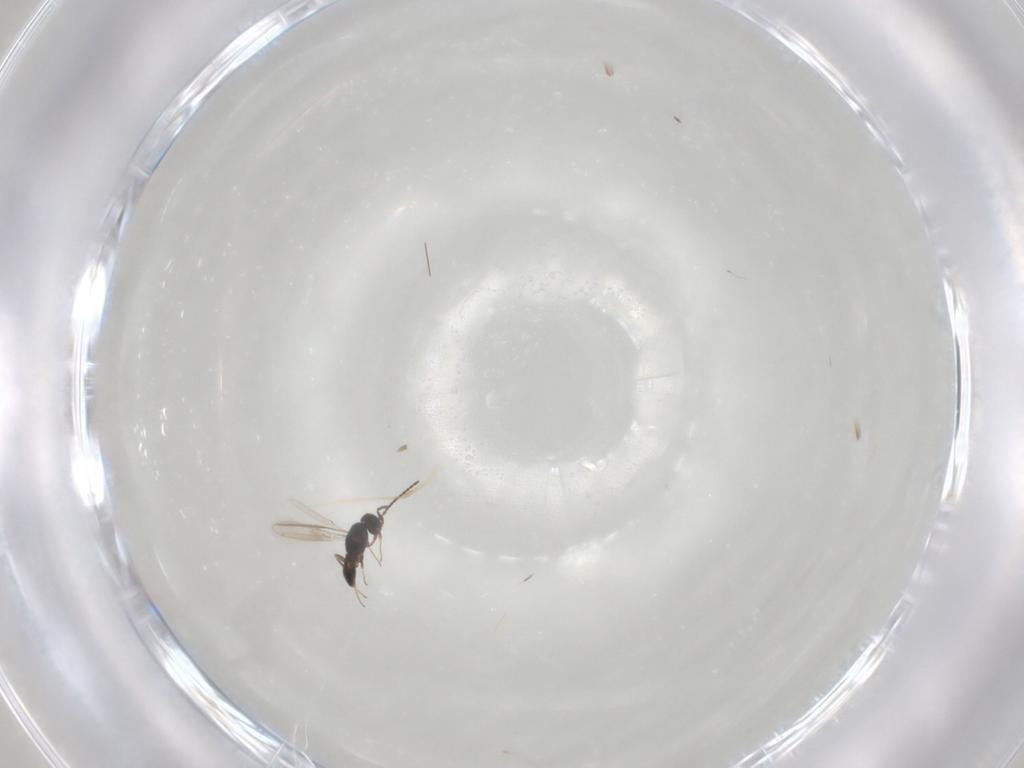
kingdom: Animalia
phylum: Arthropoda
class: Insecta
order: Hymenoptera
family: Scelionidae
